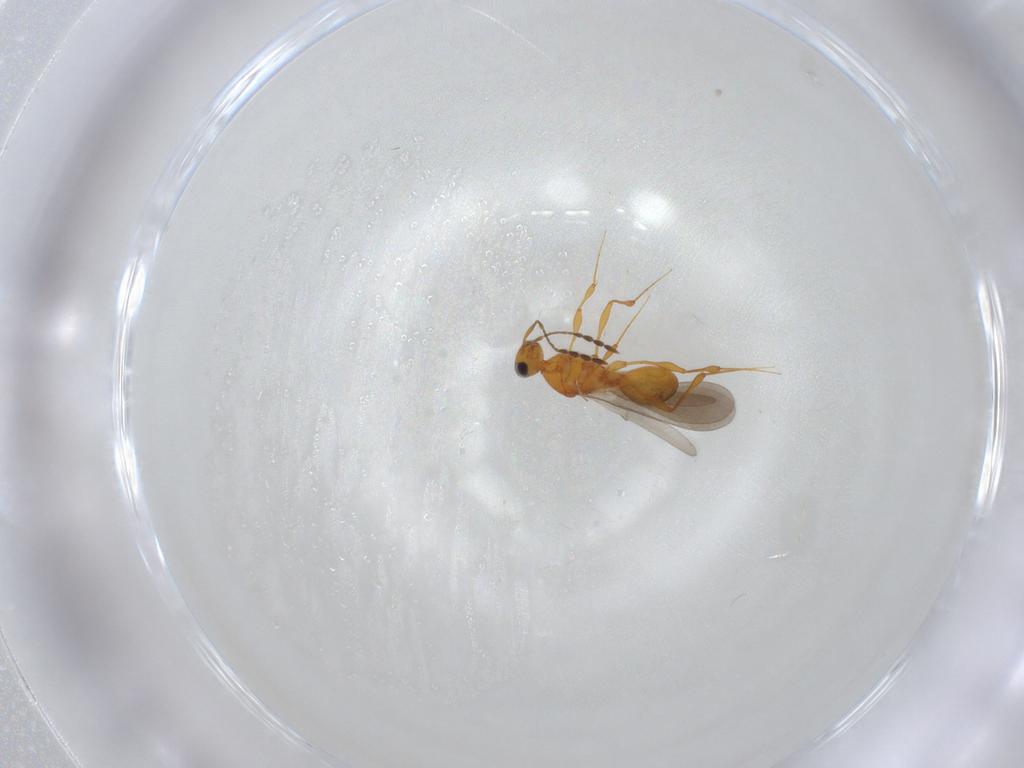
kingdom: Animalia
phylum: Arthropoda
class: Insecta
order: Hymenoptera
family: Platygastridae
